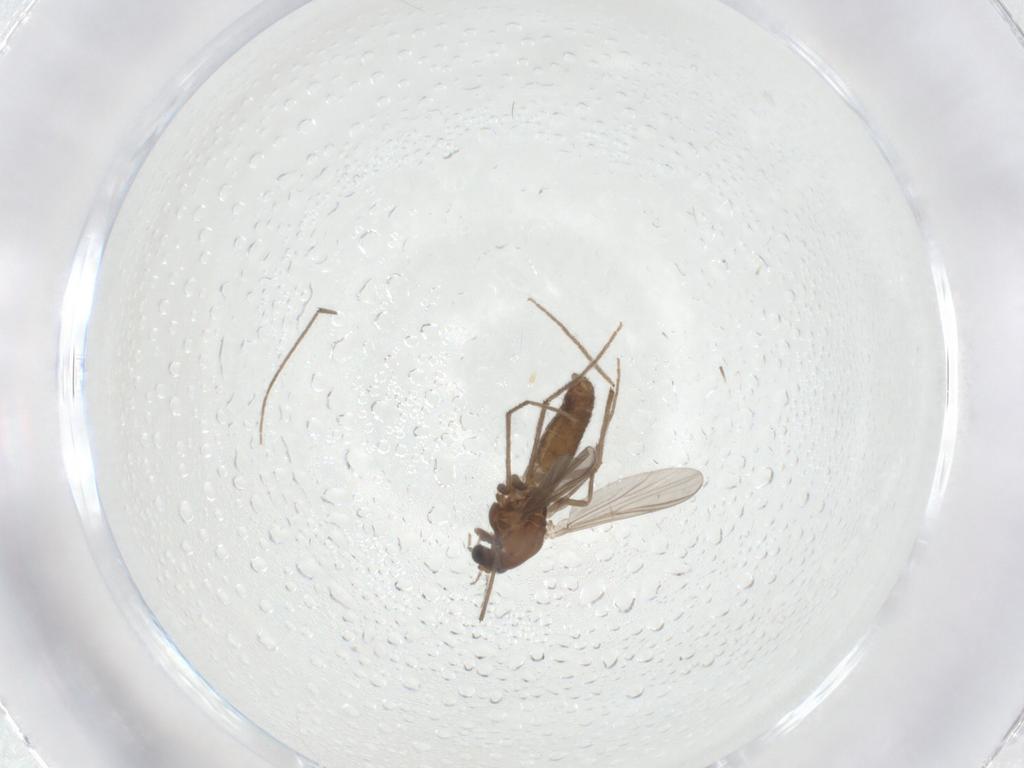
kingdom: Animalia
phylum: Arthropoda
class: Insecta
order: Diptera
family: Chironomidae
